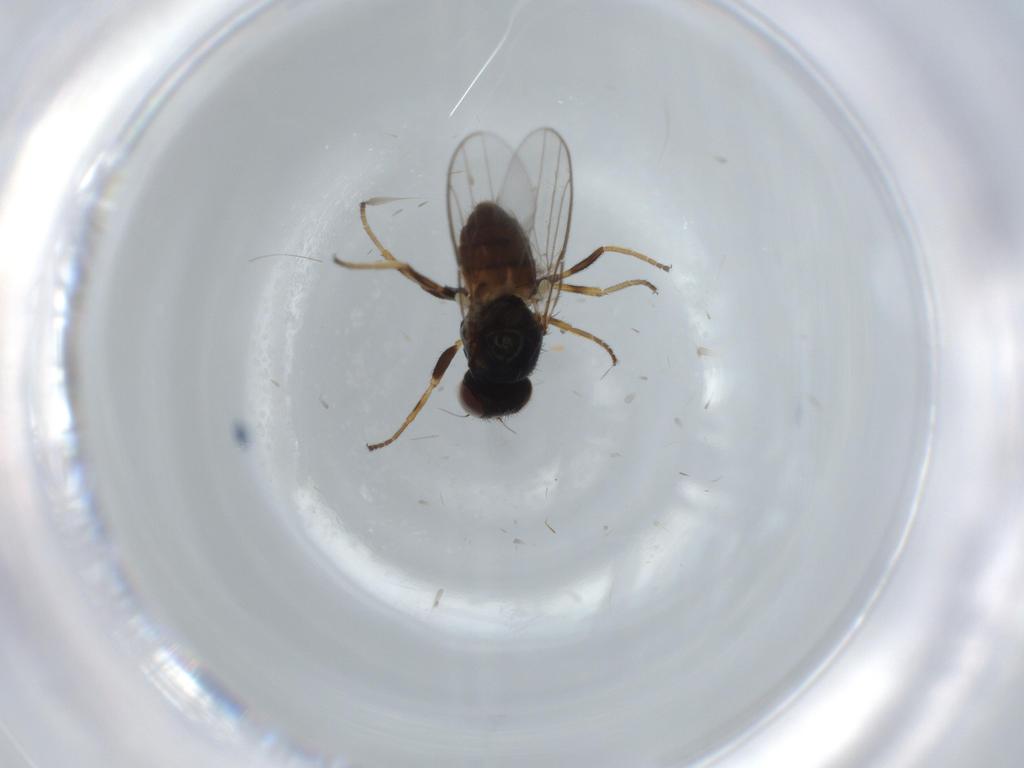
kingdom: Animalia
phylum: Arthropoda
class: Insecta
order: Diptera
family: Chloropidae
